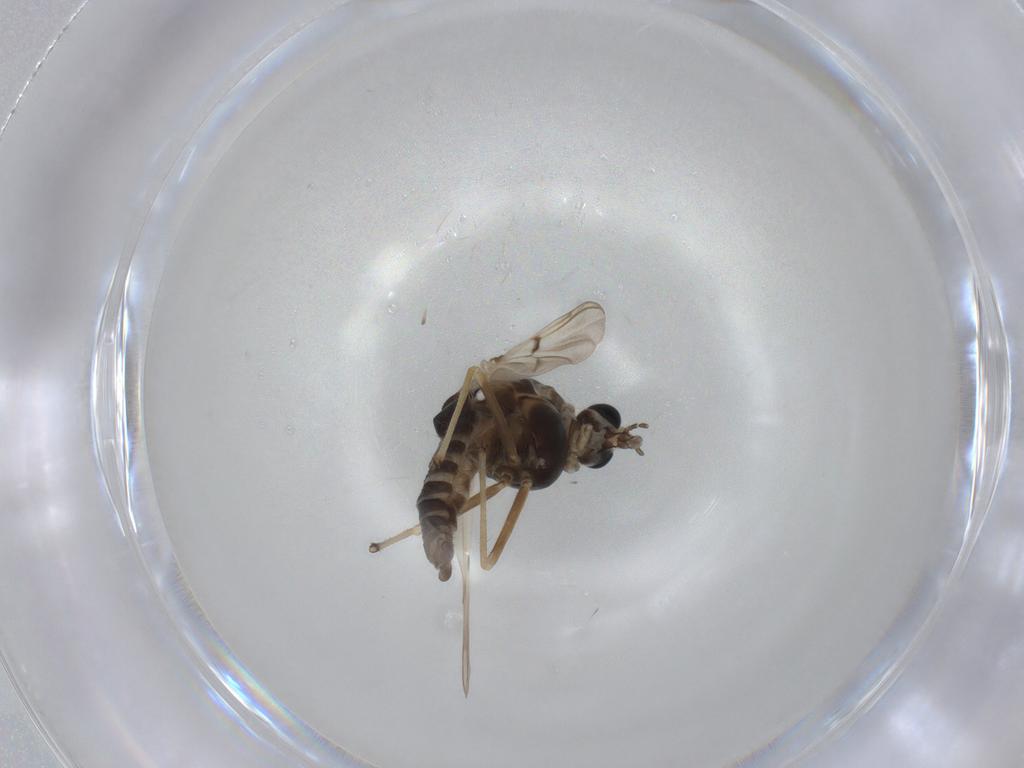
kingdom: Animalia
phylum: Arthropoda
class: Insecta
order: Diptera
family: Chironomidae
